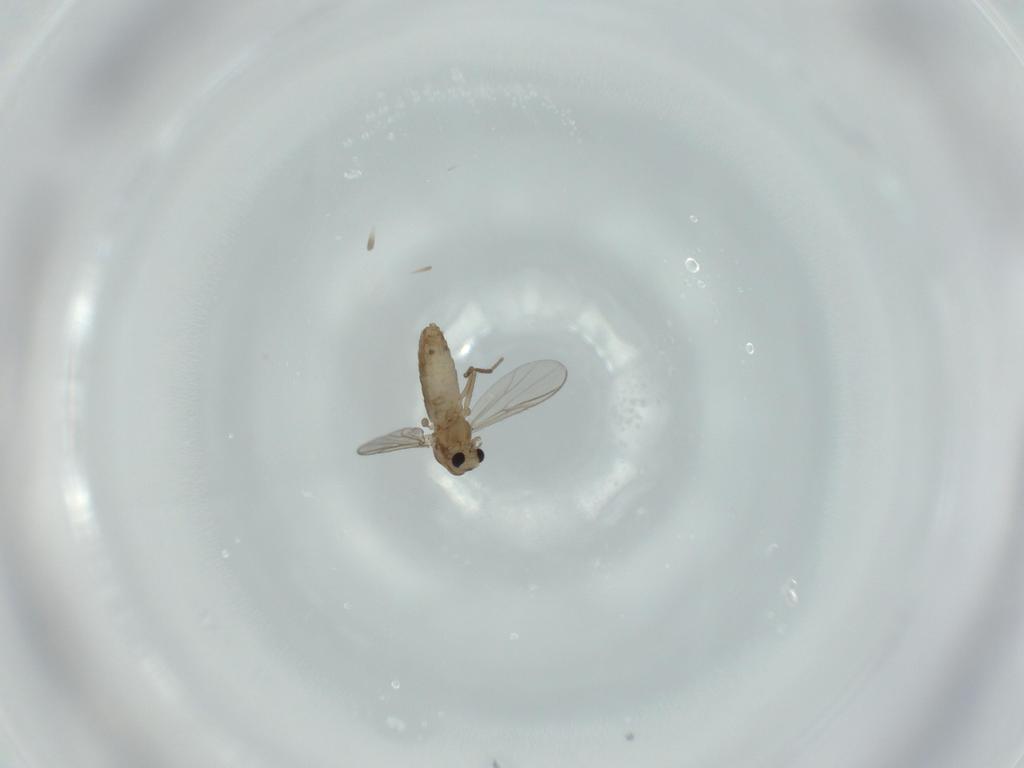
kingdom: Animalia
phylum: Arthropoda
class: Insecta
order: Diptera
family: Chironomidae
